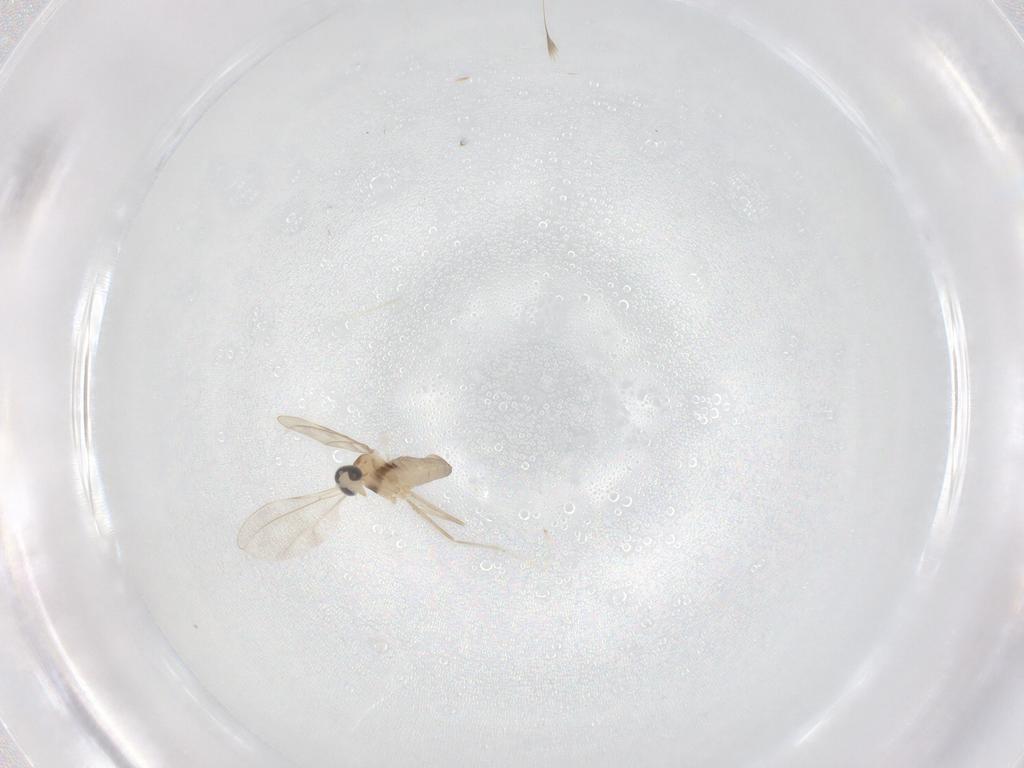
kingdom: Animalia
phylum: Arthropoda
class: Insecta
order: Diptera
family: Cecidomyiidae
